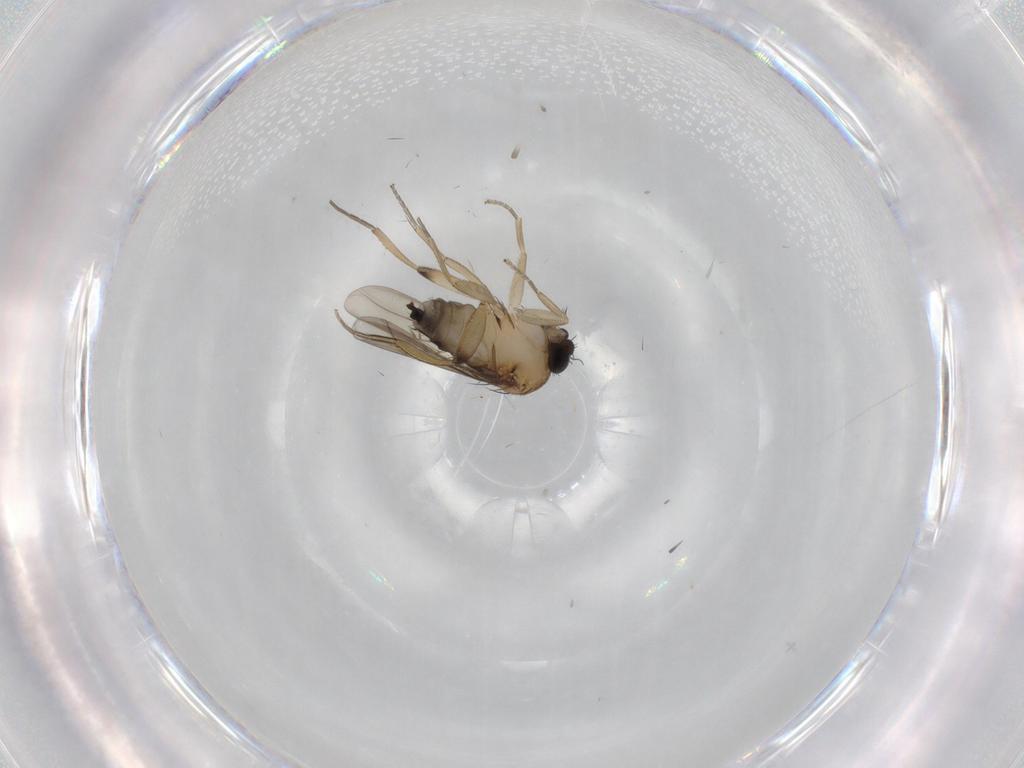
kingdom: Animalia
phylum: Arthropoda
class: Insecta
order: Diptera
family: Phoridae
